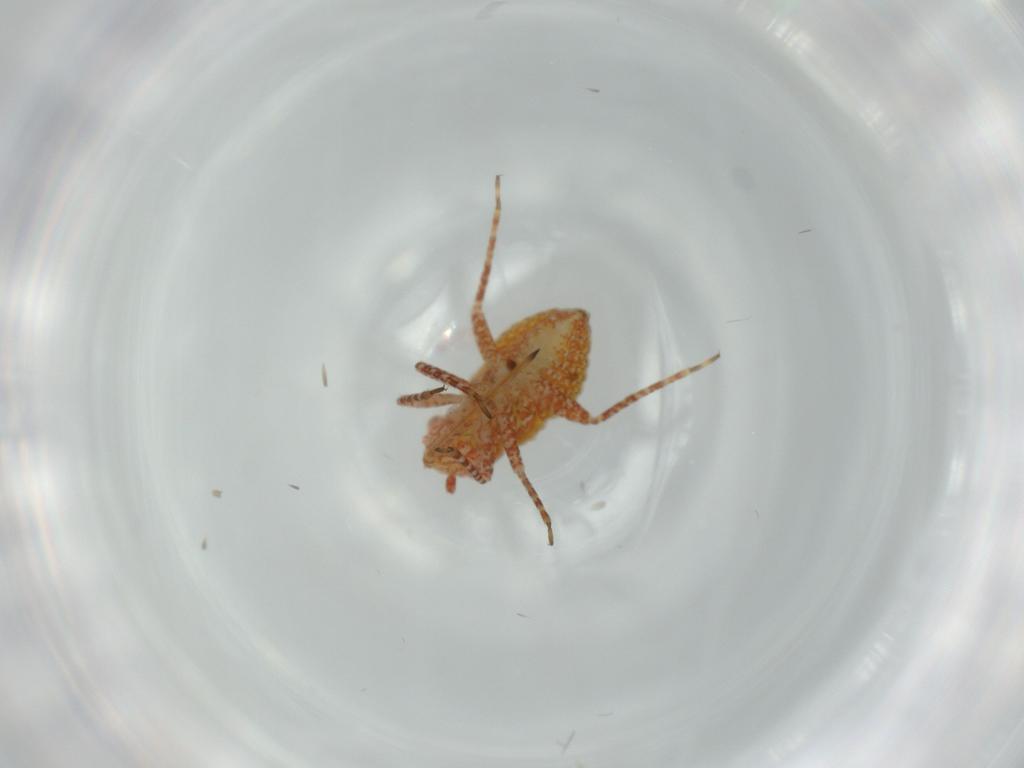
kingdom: Animalia
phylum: Arthropoda
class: Insecta
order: Hemiptera
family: Miridae
